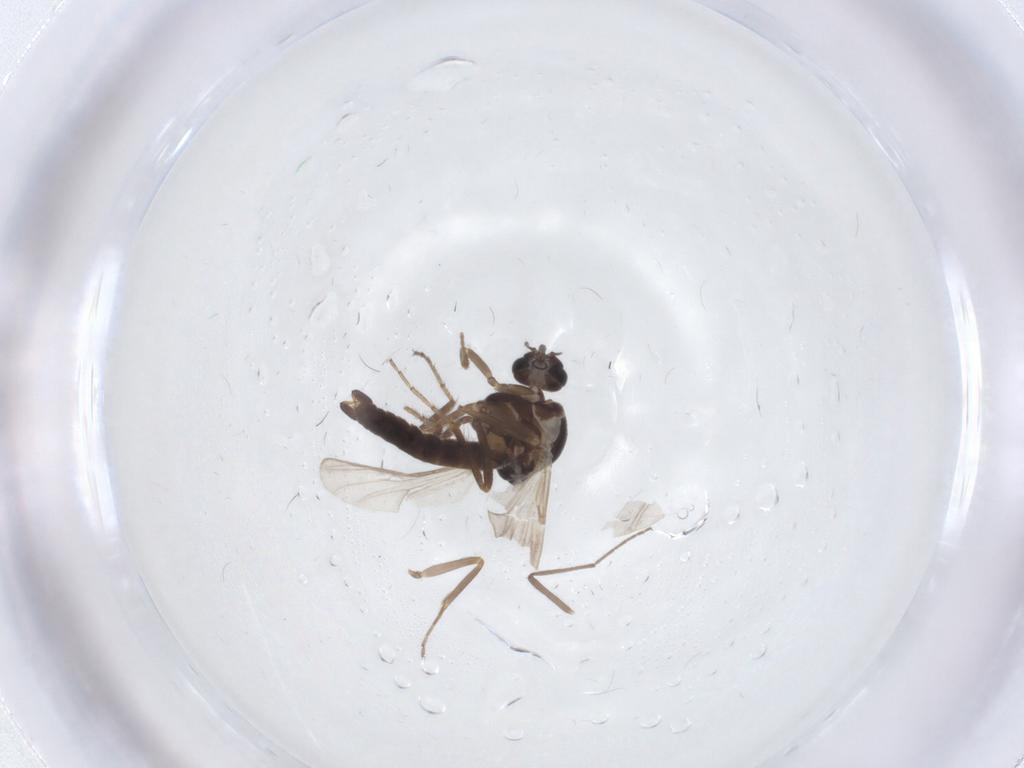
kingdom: Animalia
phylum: Arthropoda
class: Insecta
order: Diptera
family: Ceratopogonidae
